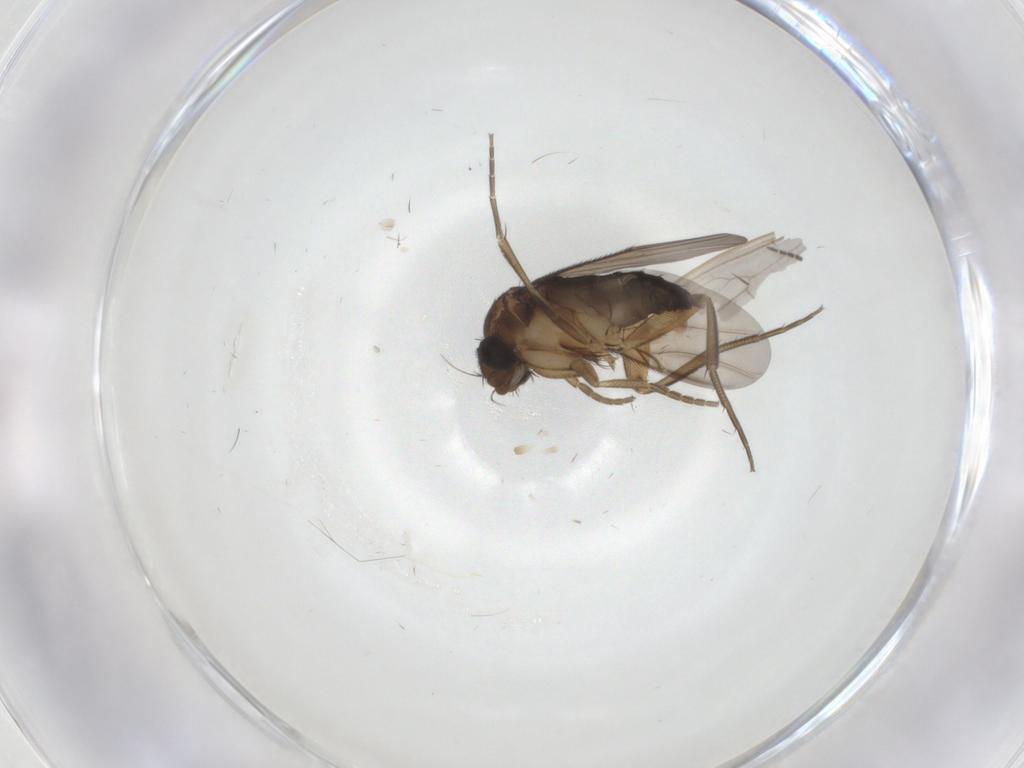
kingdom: Animalia
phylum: Arthropoda
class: Insecta
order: Diptera
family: Phoridae
